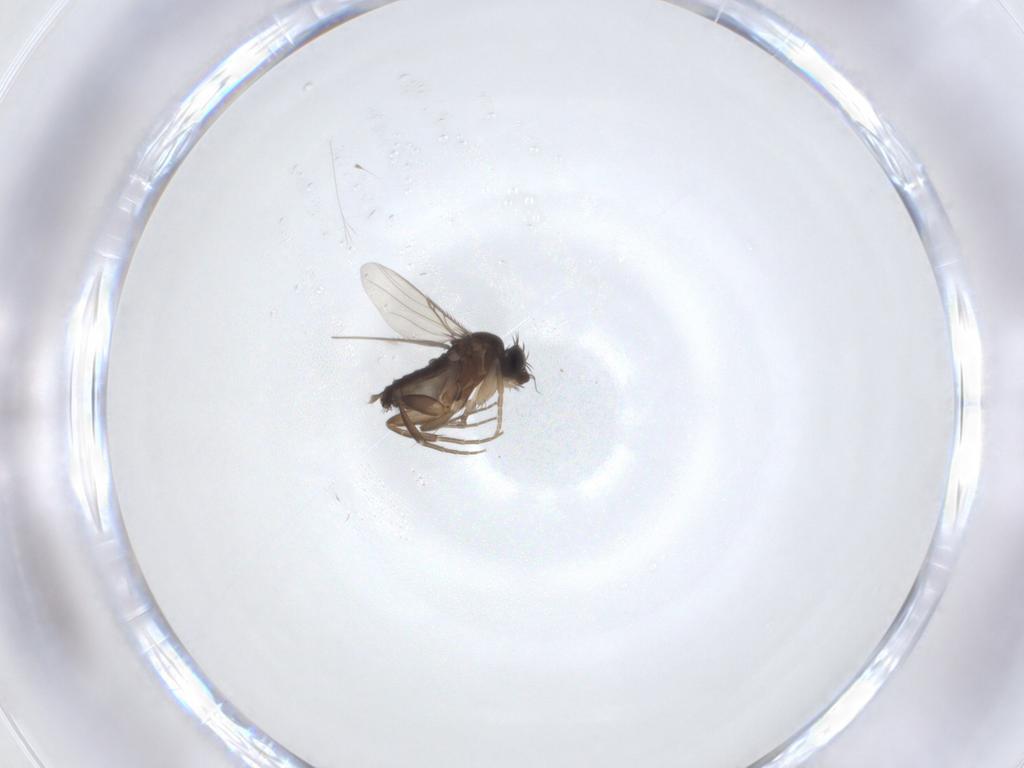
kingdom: Animalia
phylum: Arthropoda
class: Insecta
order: Diptera
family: Phoridae
